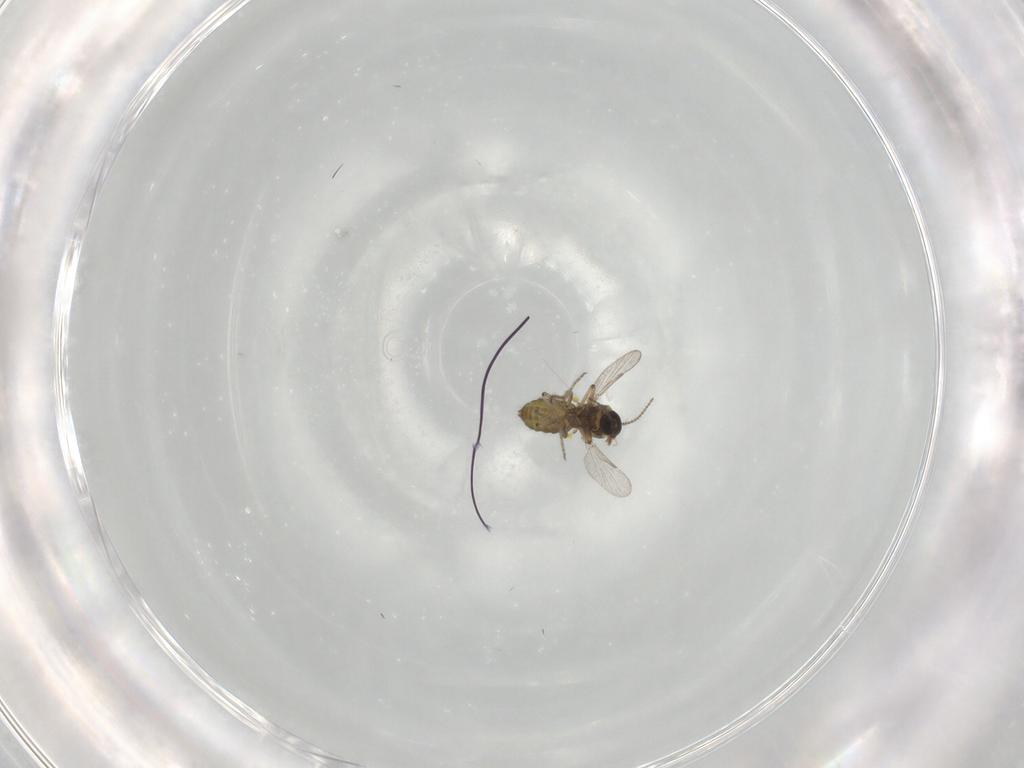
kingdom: Animalia
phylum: Arthropoda
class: Insecta
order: Diptera
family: Ceratopogonidae
